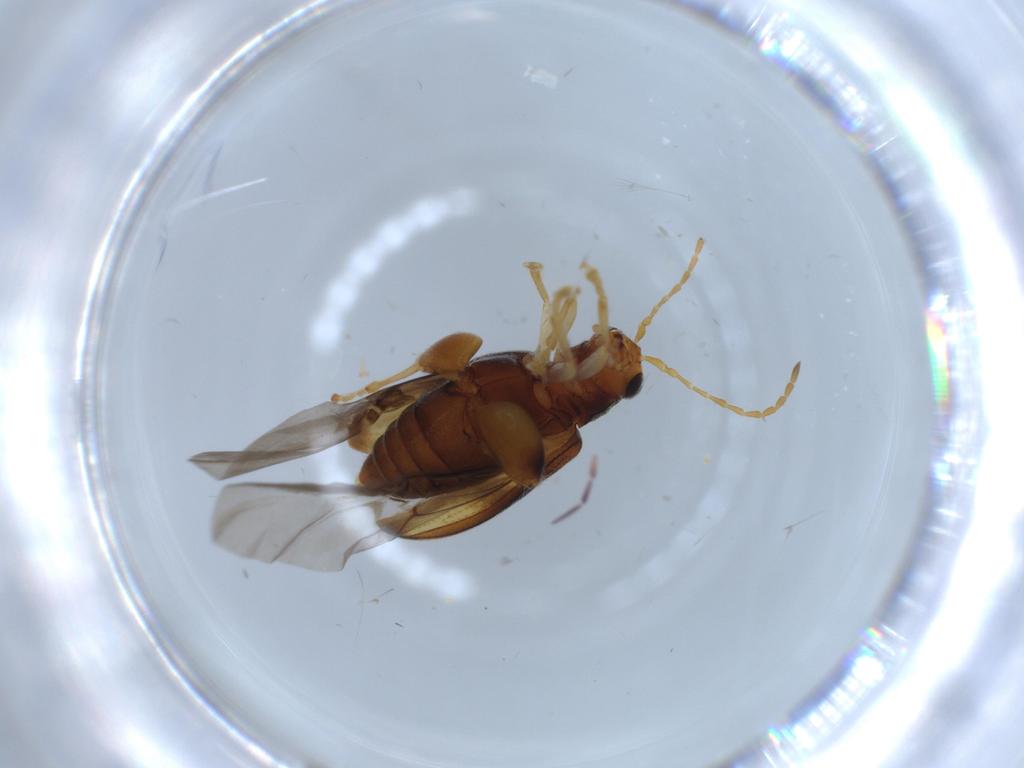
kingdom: Animalia
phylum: Arthropoda
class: Insecta
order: Coleoptera
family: Chrysomelidae
